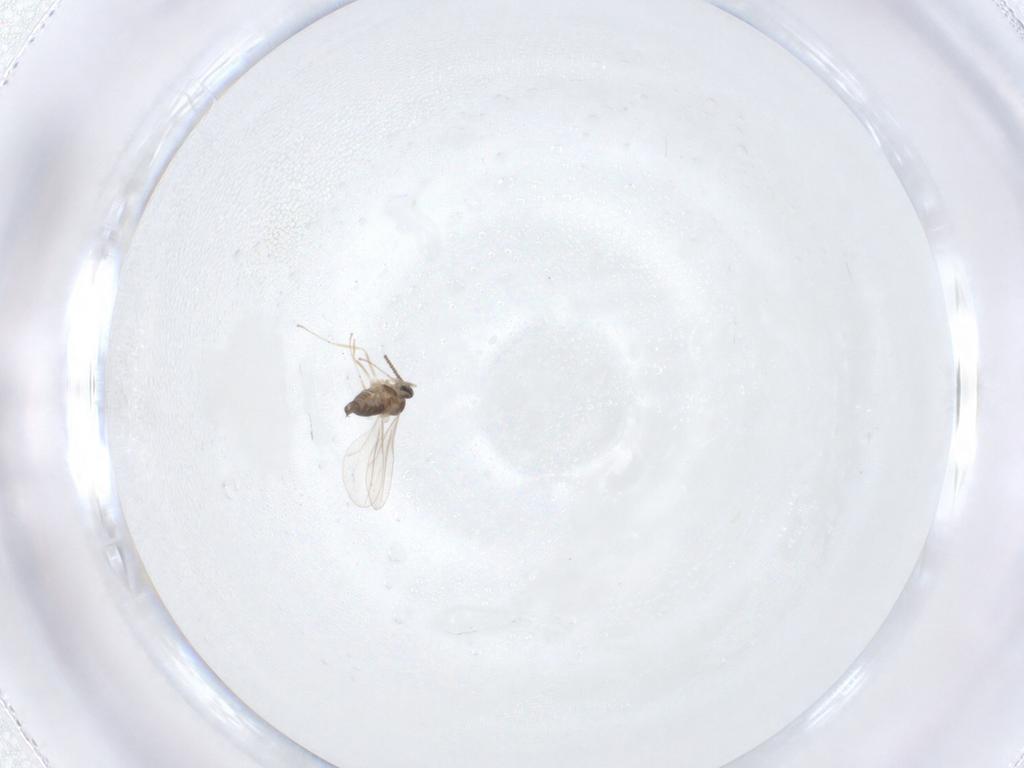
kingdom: Animalia
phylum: Arthropoda
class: Insecta
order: Diptera
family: Cecidomyiidae
